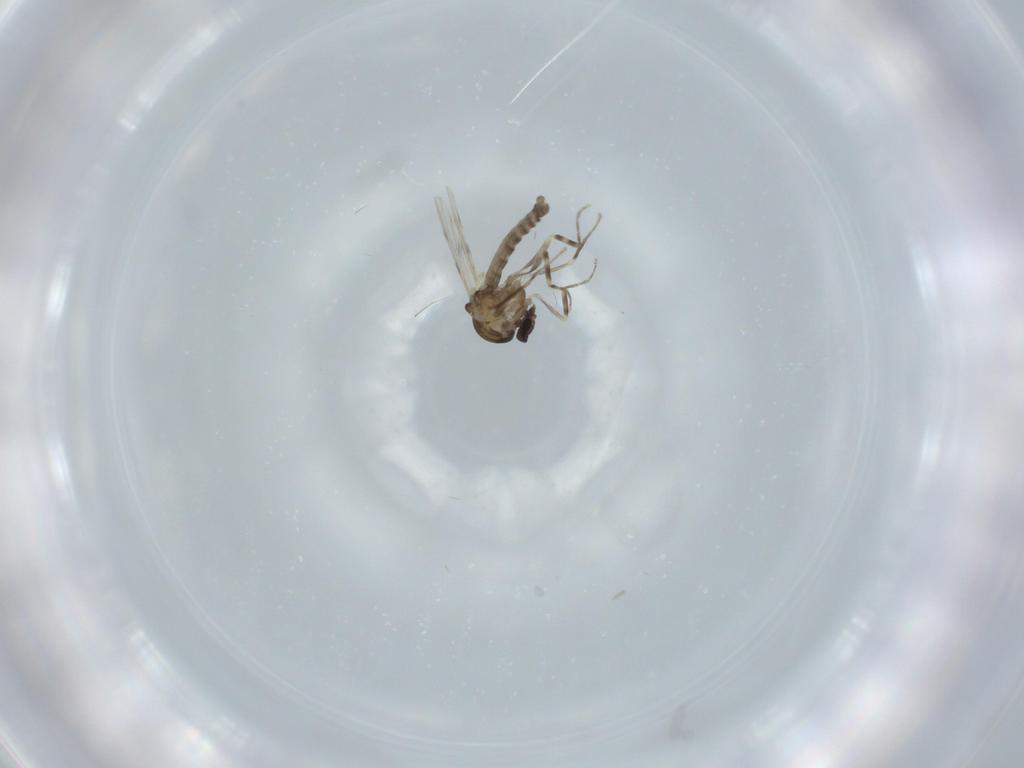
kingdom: Animalia
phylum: Arthropoda
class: Insecta
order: Diptera
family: Ceratopogonidae
